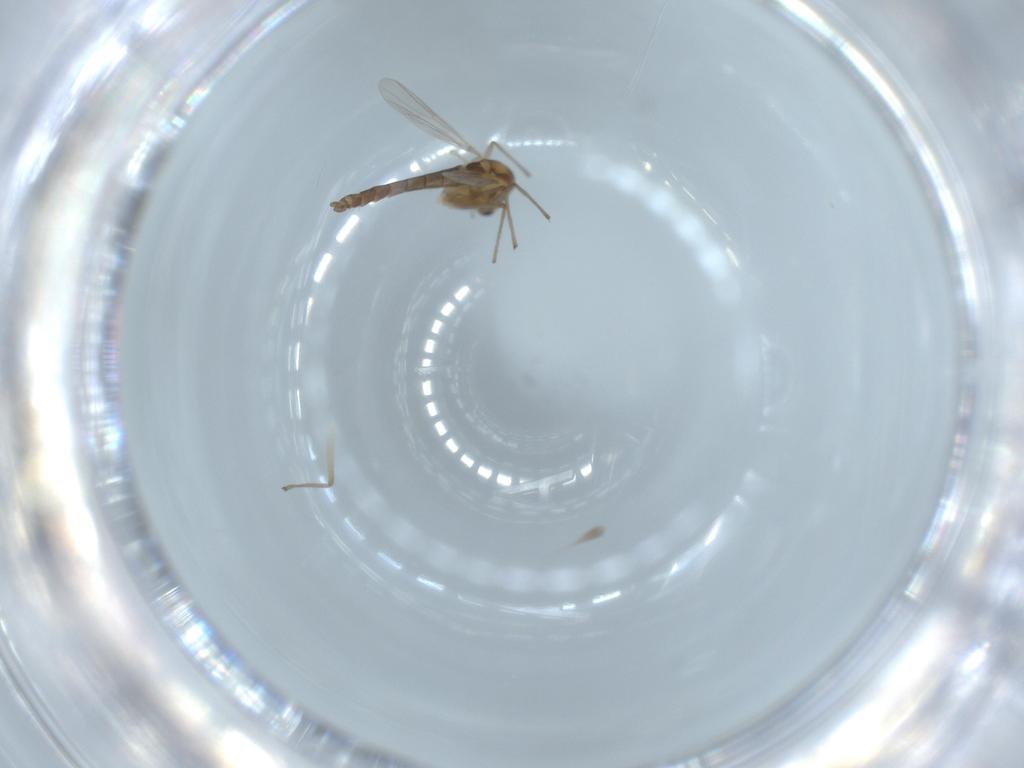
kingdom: Animalia
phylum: Arthropoda
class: Insecta
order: Diptera
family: Chironomidae
